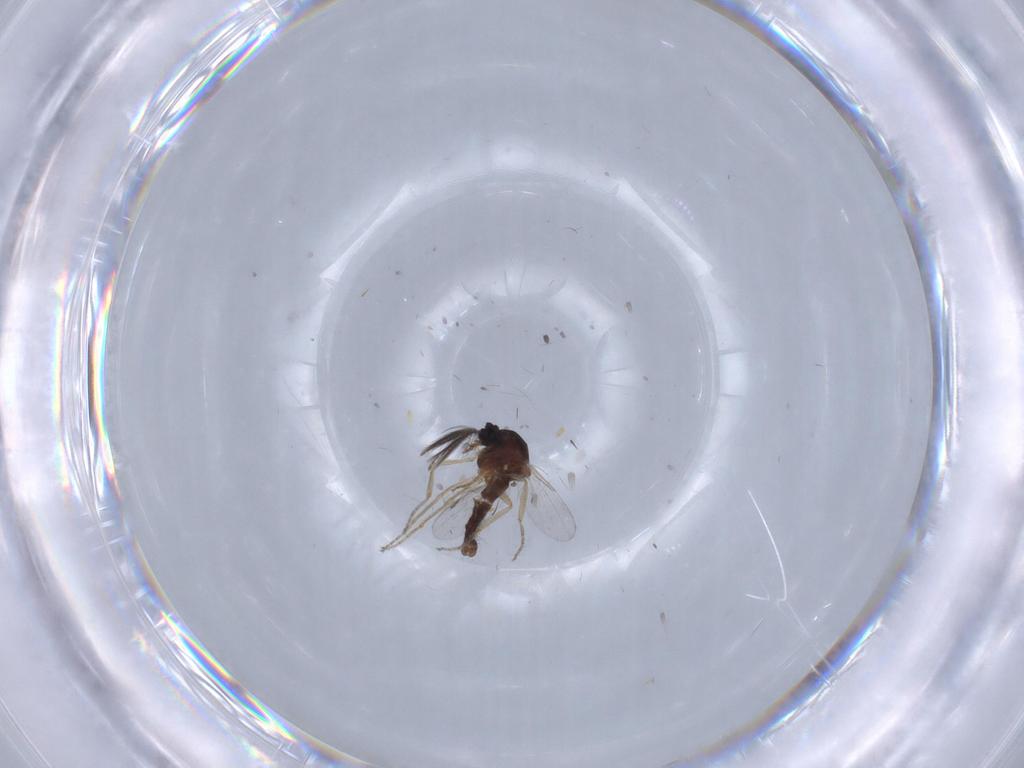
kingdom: Animalia
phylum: Arthropoda
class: Insecta
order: Diptera
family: Ceratopogonidae
